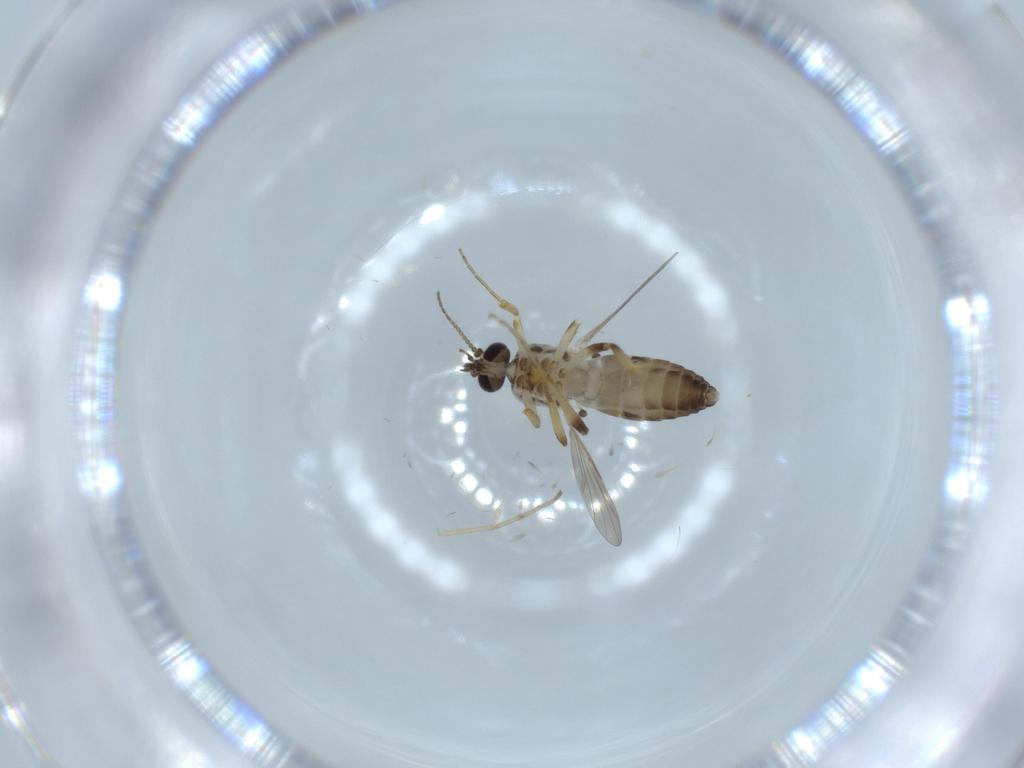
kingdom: Animalia
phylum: Arthropoda
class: Insecta
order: Diptera
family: Ceratopogonidae
